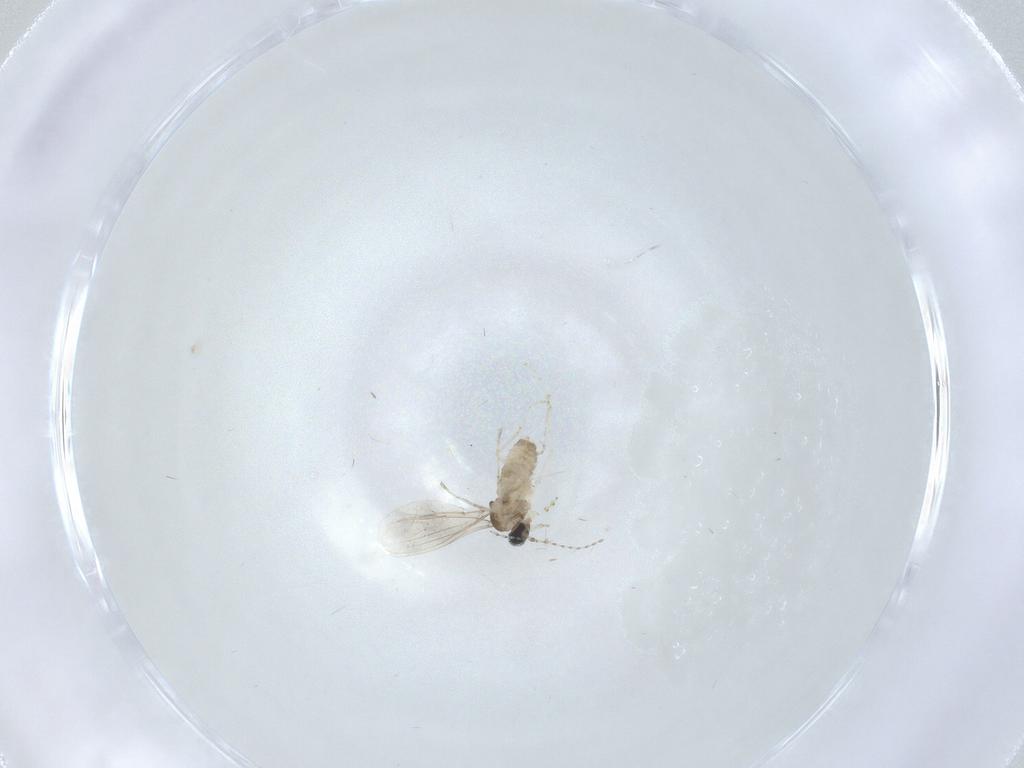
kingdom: Animalia
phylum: Arthropoda
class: Insecta
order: Diptera
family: Cecidomyiidae
